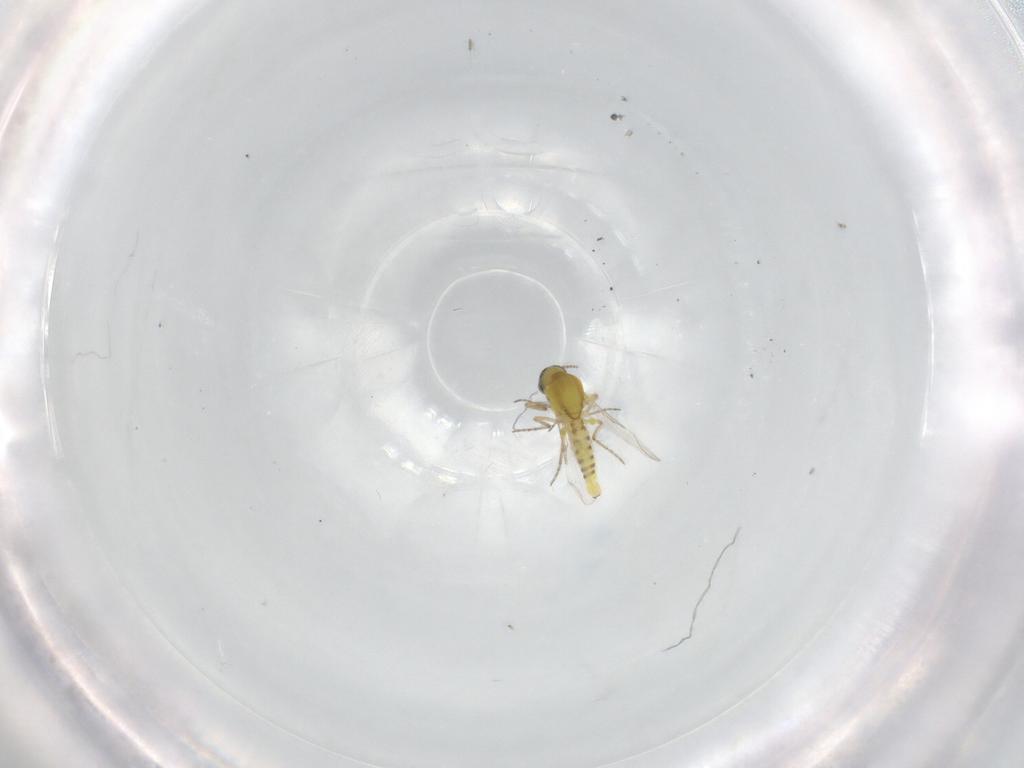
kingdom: Animalia
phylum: Arthropoda
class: Insecta
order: Diptera
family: Ceratopogonidae
